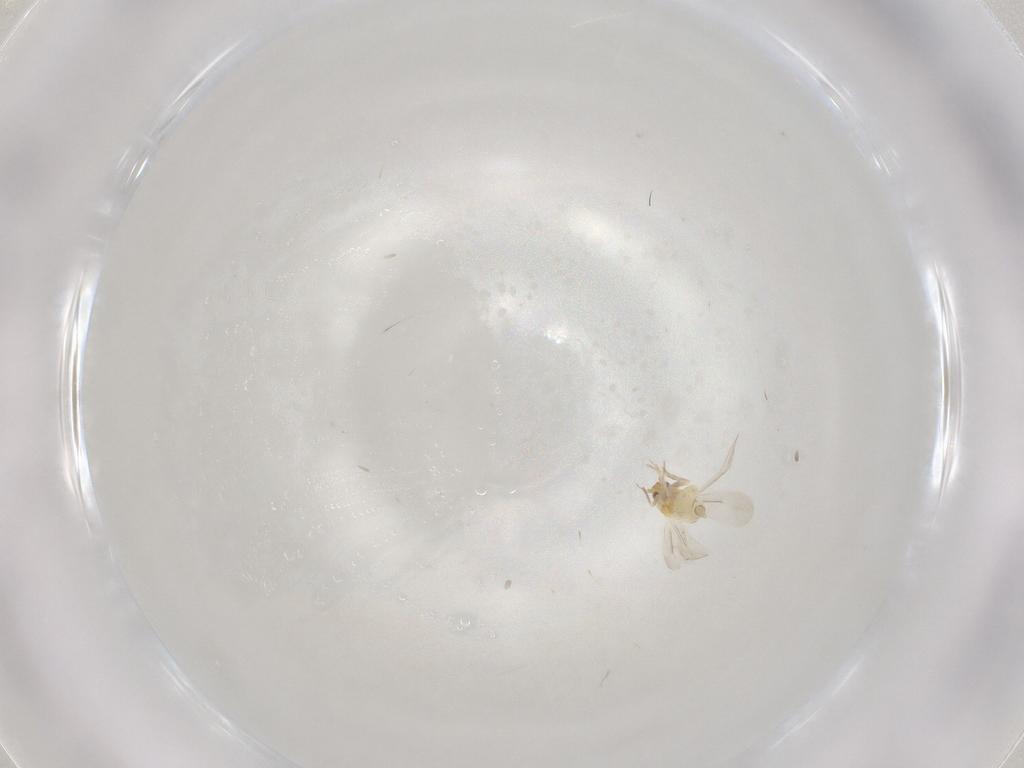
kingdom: Animalia
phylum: Arthropoda
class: Insecta
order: Hemiptera
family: Aleyrodidae
